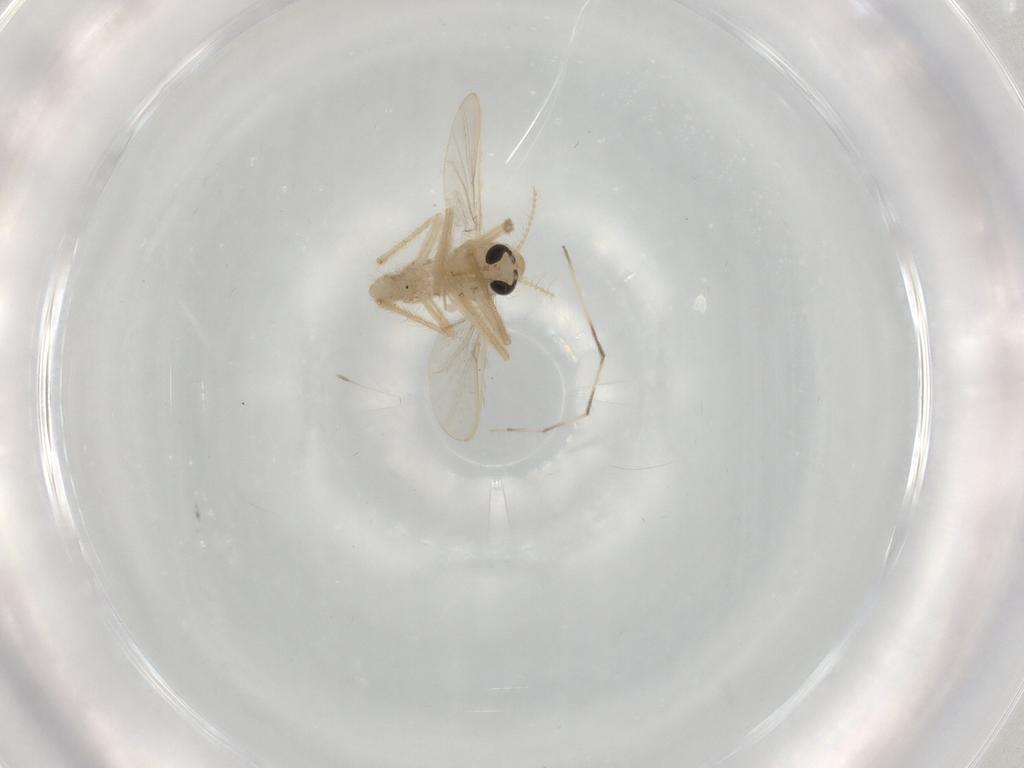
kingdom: Animalia
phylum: Arthropoda
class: Insecta
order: Diptera
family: Chironomidae
